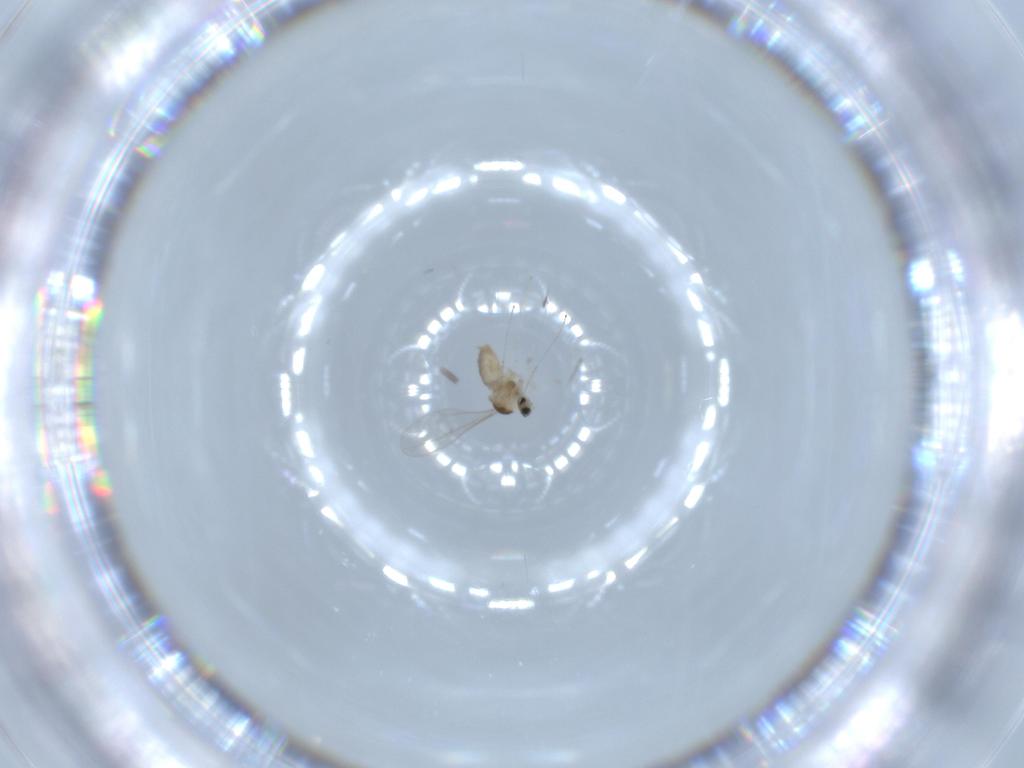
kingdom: Animalia
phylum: Arthropoda
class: Insecta
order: Diptera
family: Cecidomyiidae
